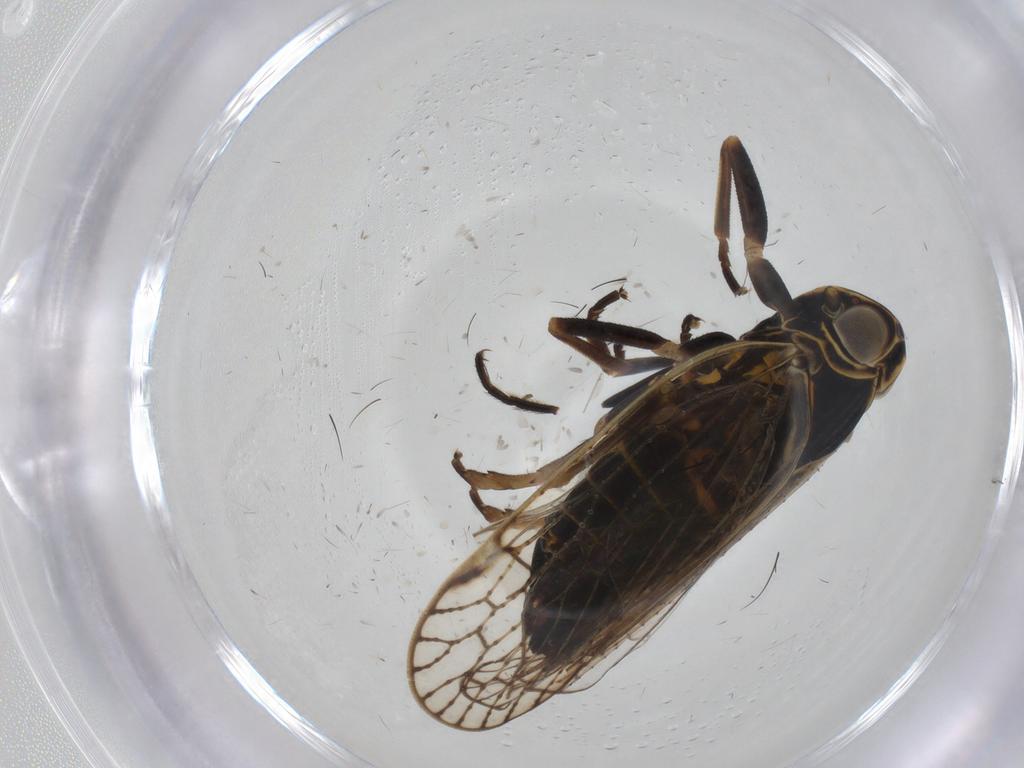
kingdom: Animalia
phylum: Arthropoda
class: Insecta
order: Hemiptera
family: Cixiidae
